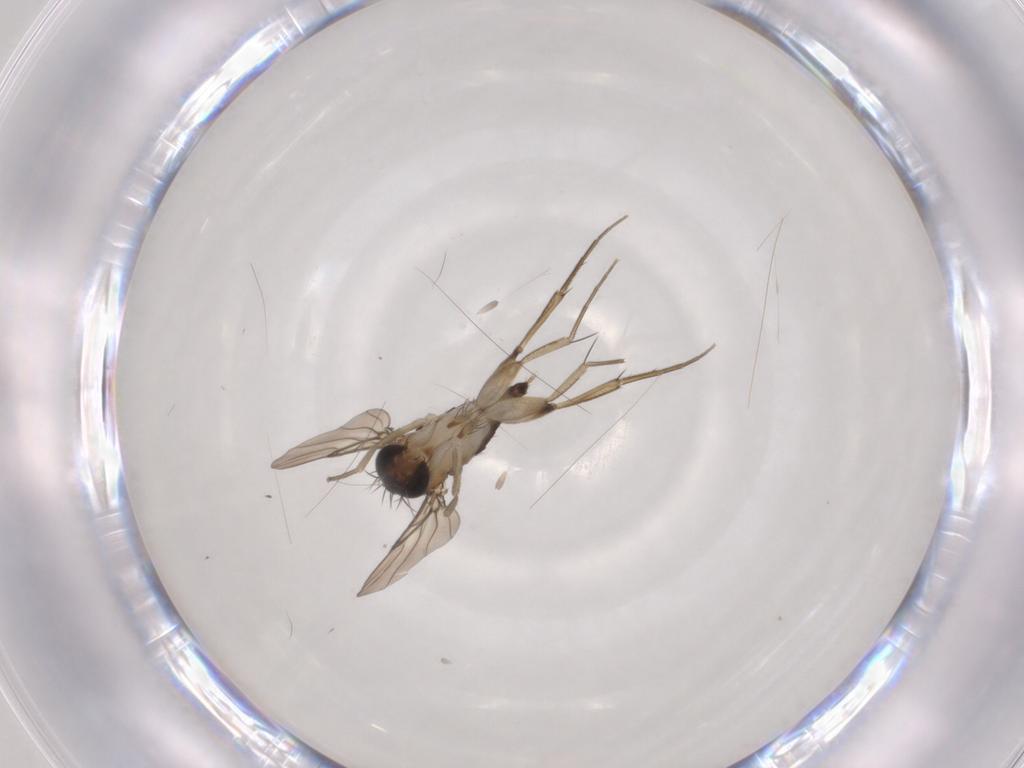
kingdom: Animalia
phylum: Arthropoda
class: Insecta
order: Diptera
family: Phoridae
